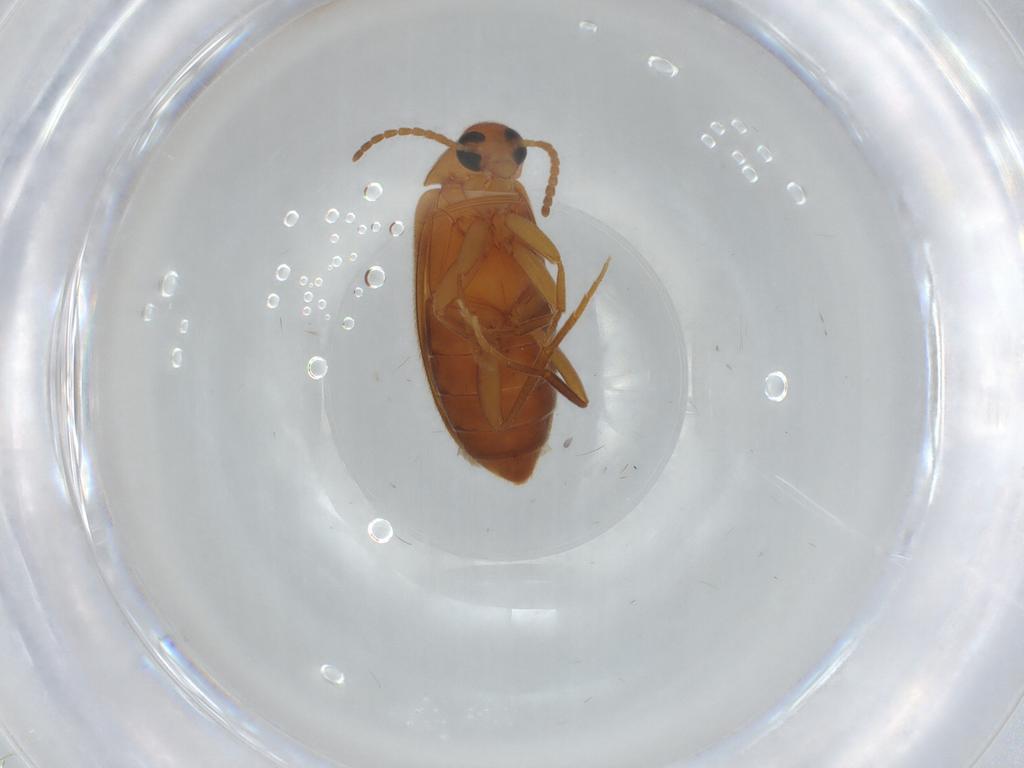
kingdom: Animalia
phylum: Arthropoda
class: Insecta
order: Coleoptera
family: Scraptiidae
